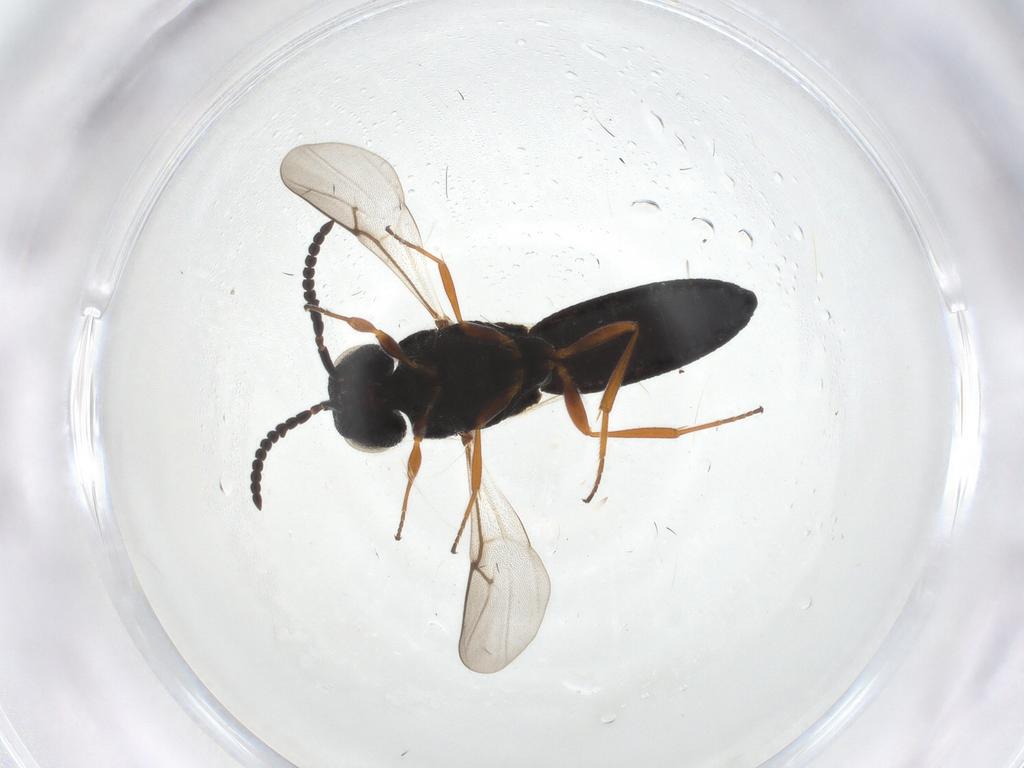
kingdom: Animalia
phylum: Arthropoda
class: Insecta
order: Hymenoptera
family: Scelionidae
